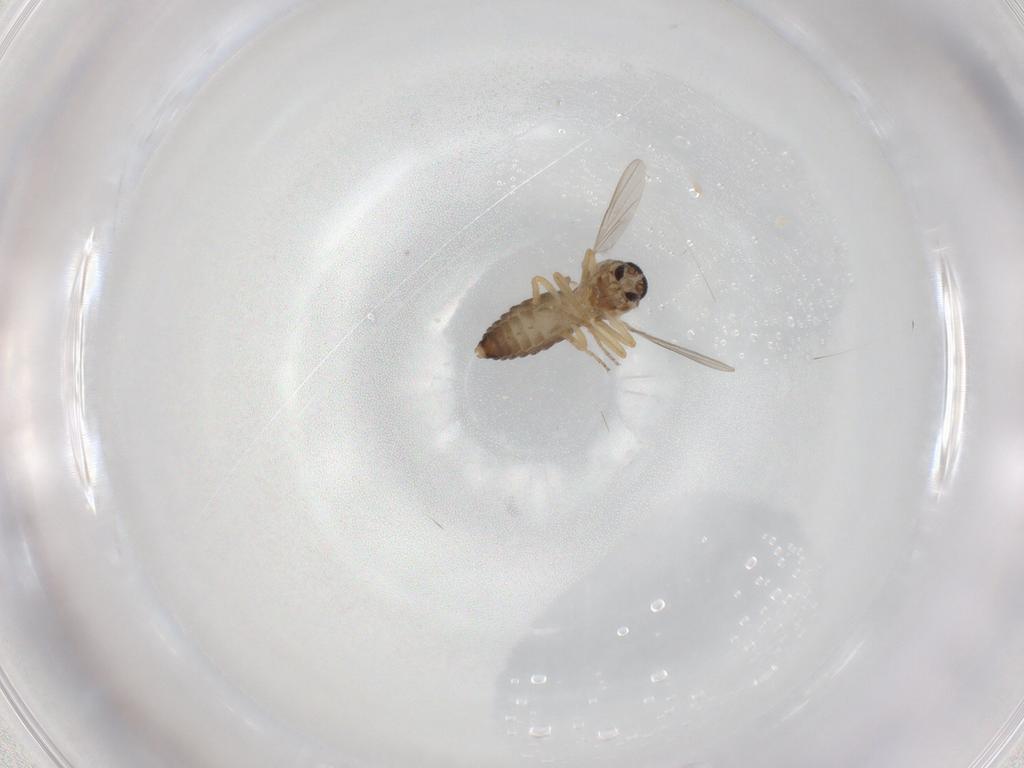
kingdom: Animalia
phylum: Arthropoda
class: Insecta
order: Diptera
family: Ceratopogonidae
